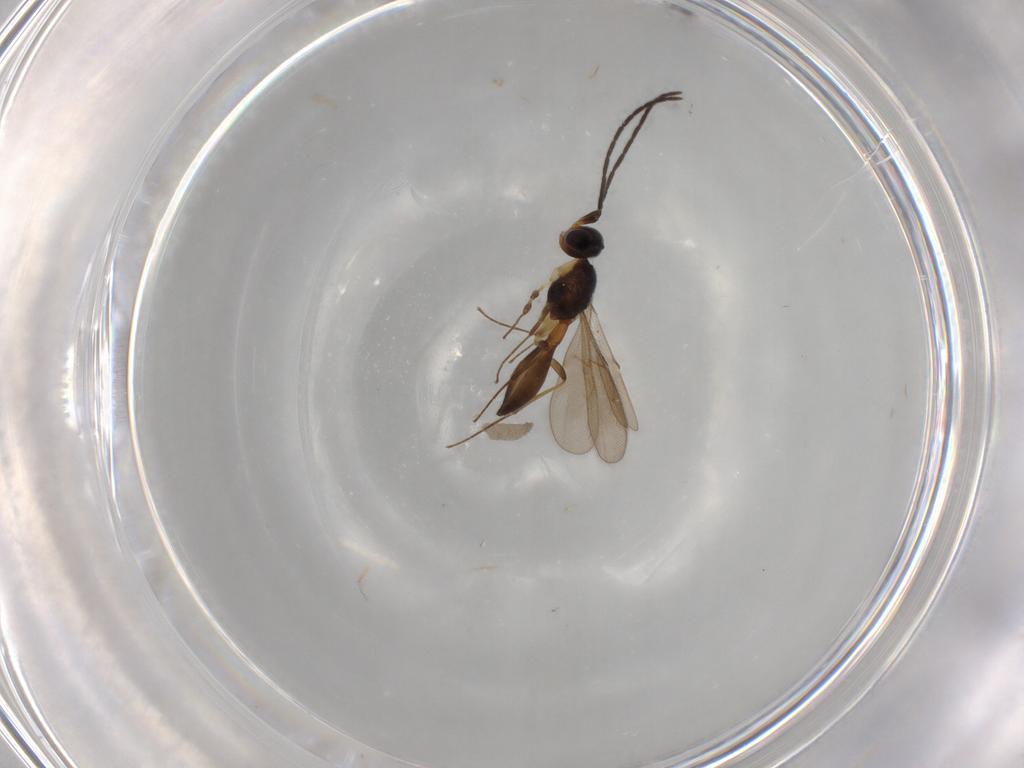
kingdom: Animalia
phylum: Arthropoda
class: Insecta
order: Hymenoptera
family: Scelionidae
